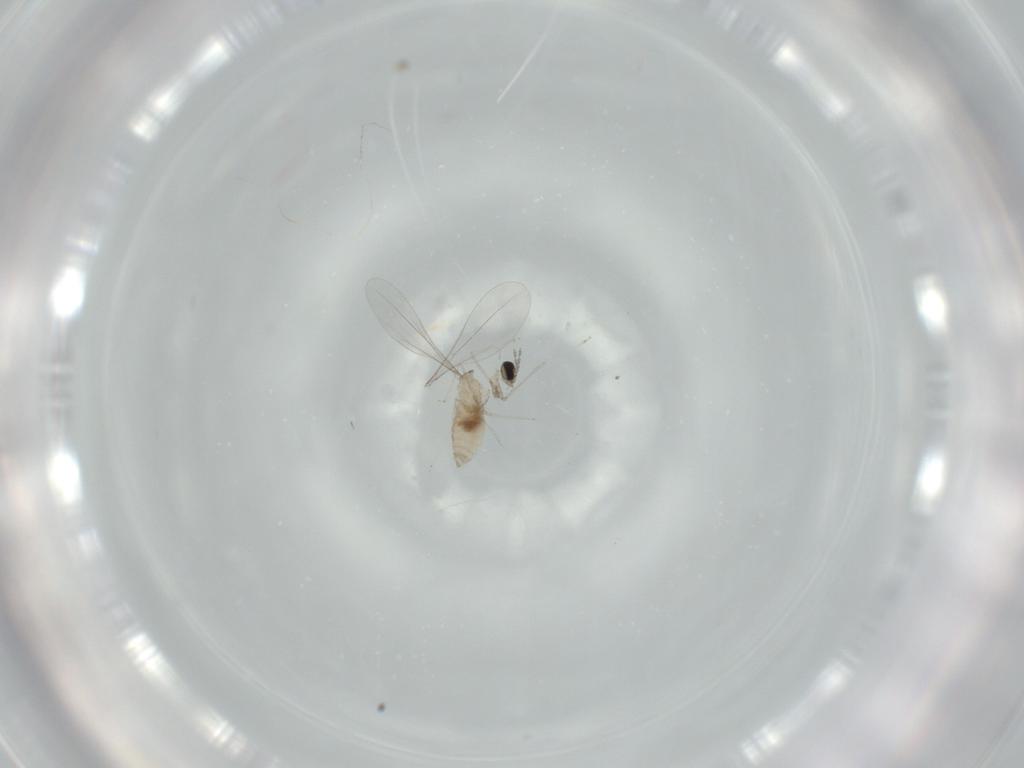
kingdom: Animalia
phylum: Arthropoda
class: Insecta
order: Diptera
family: Cecidomyiidae
